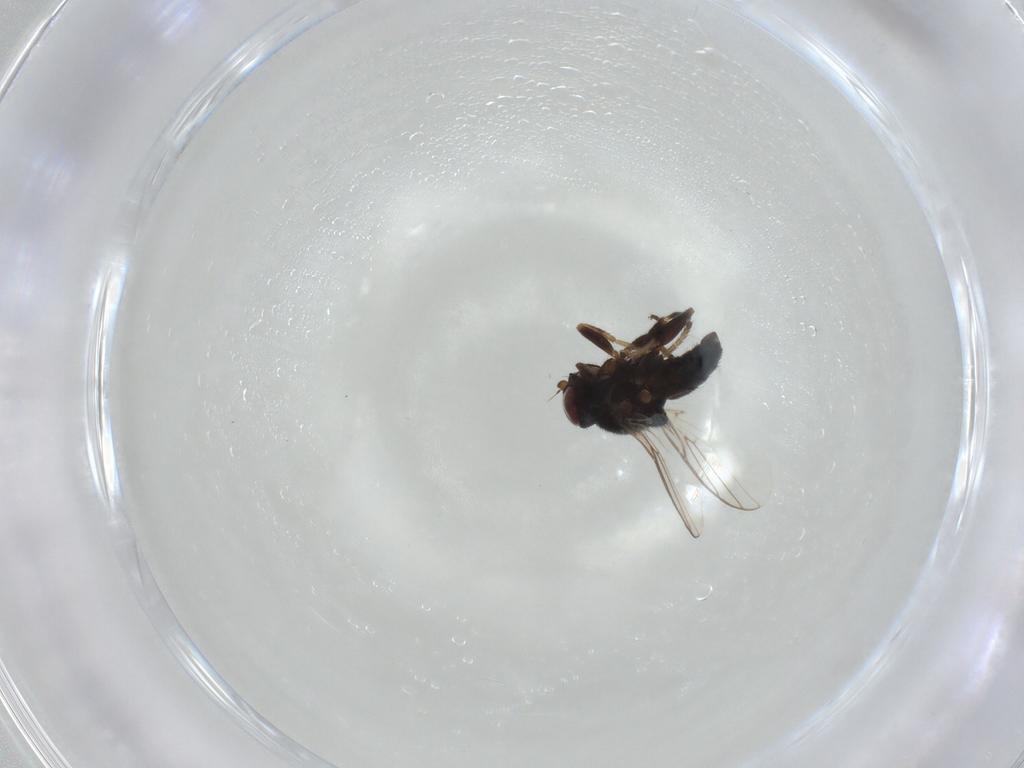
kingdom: Animalia
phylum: Arthropoda
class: Insecta
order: Diptera
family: Chloropidae
